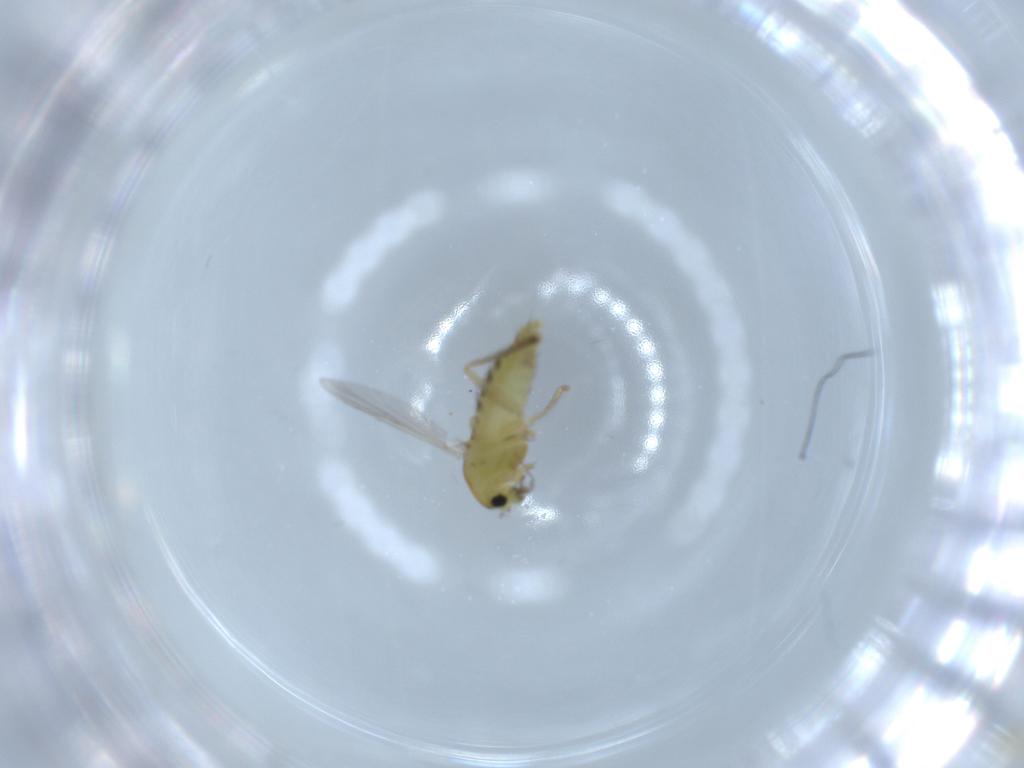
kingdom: Animalia
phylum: Arthropoda
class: Insecta
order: Diptera
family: Chironomidae
